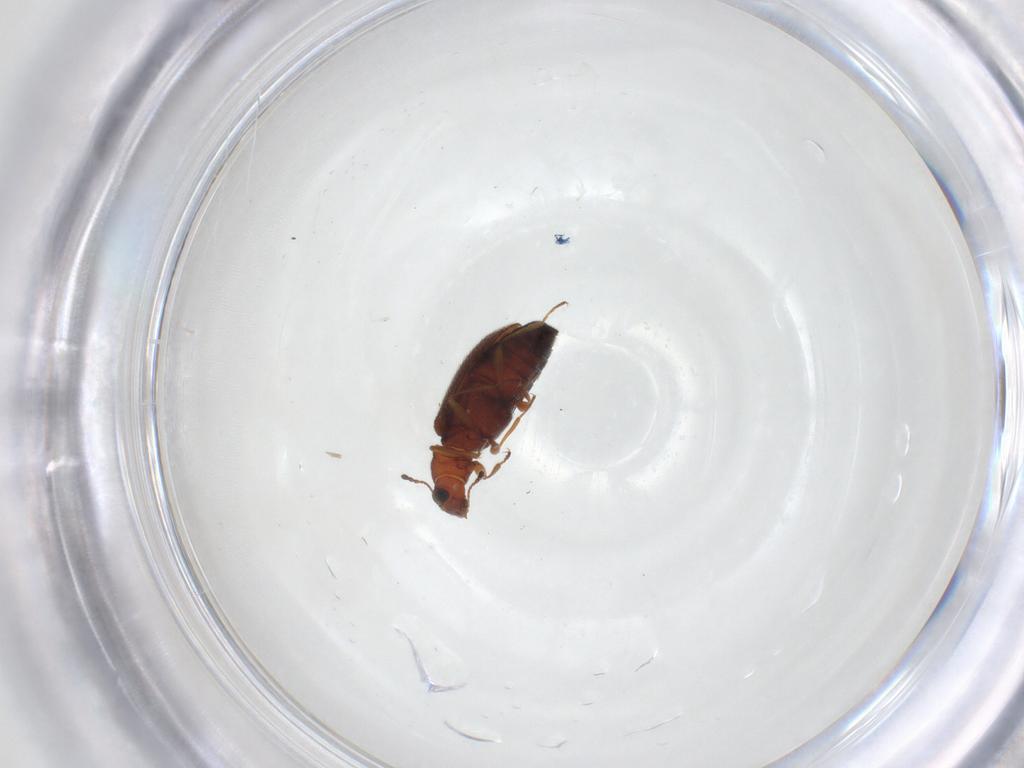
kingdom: Animalia
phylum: Arthropoda
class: Insecta
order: Coleoptera
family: Hydrophilidae
